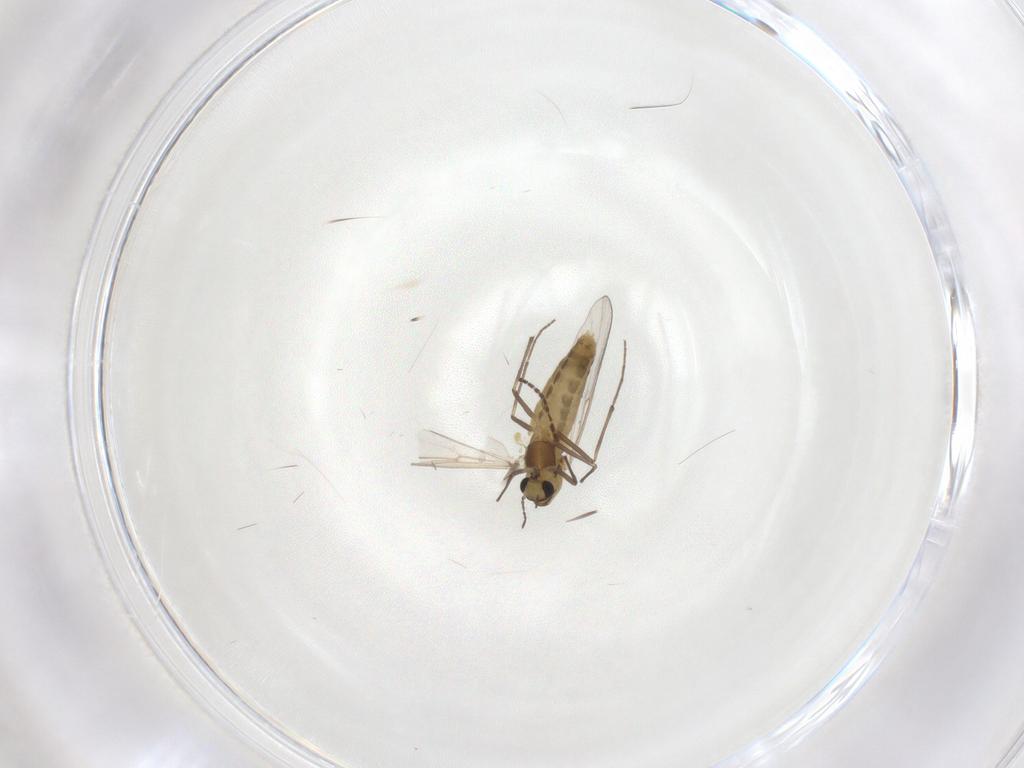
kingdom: Animalia
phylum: Arthropoda
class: Insecta
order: Diptera
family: Chironomidae
